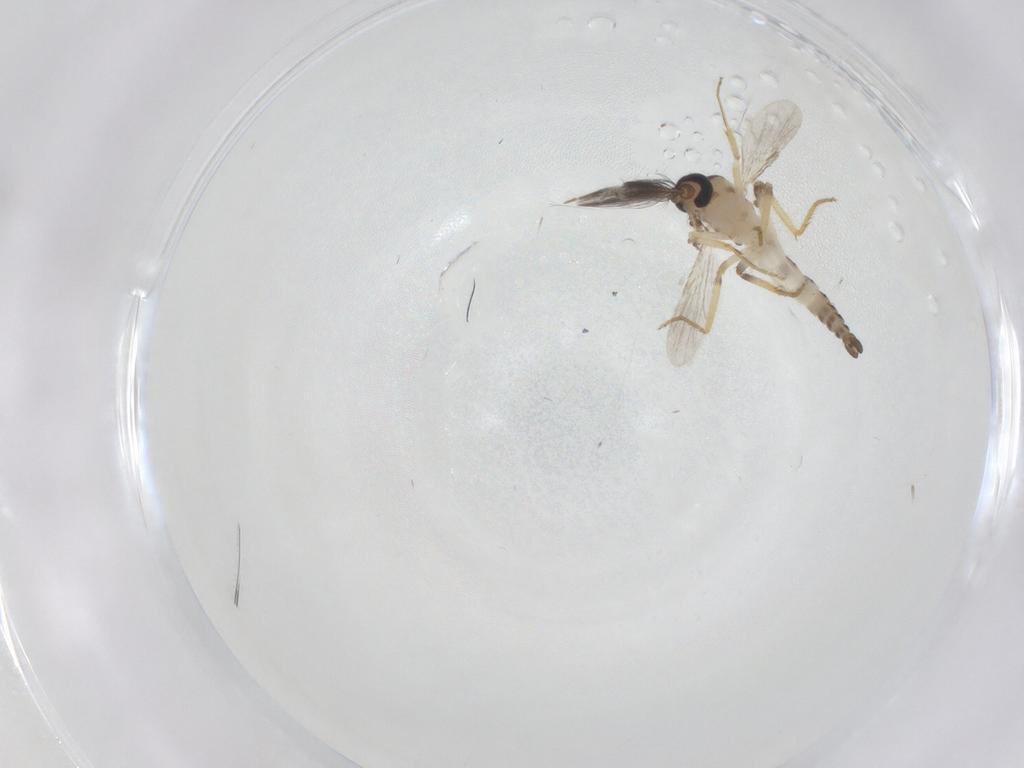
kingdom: Animalia
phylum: Arthropoda
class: Insecta
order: Diptera
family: Ceratopogonidae
